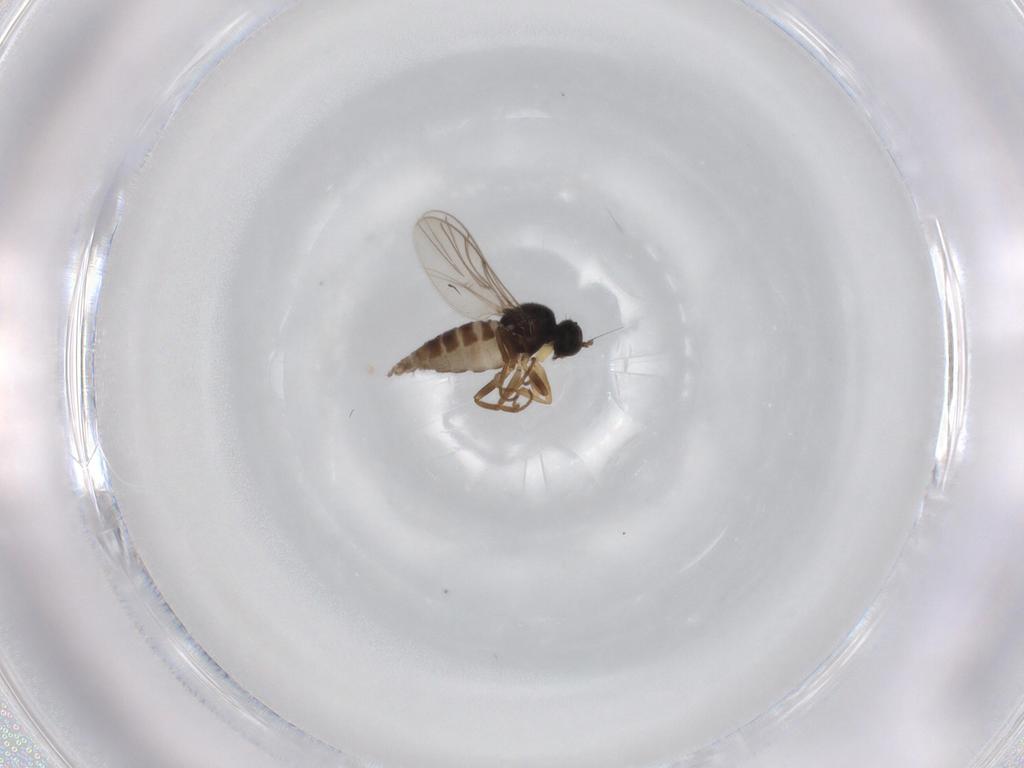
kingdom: Animalia
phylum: Arthropoda
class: Insecta
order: Diptera
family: Hybotidae
